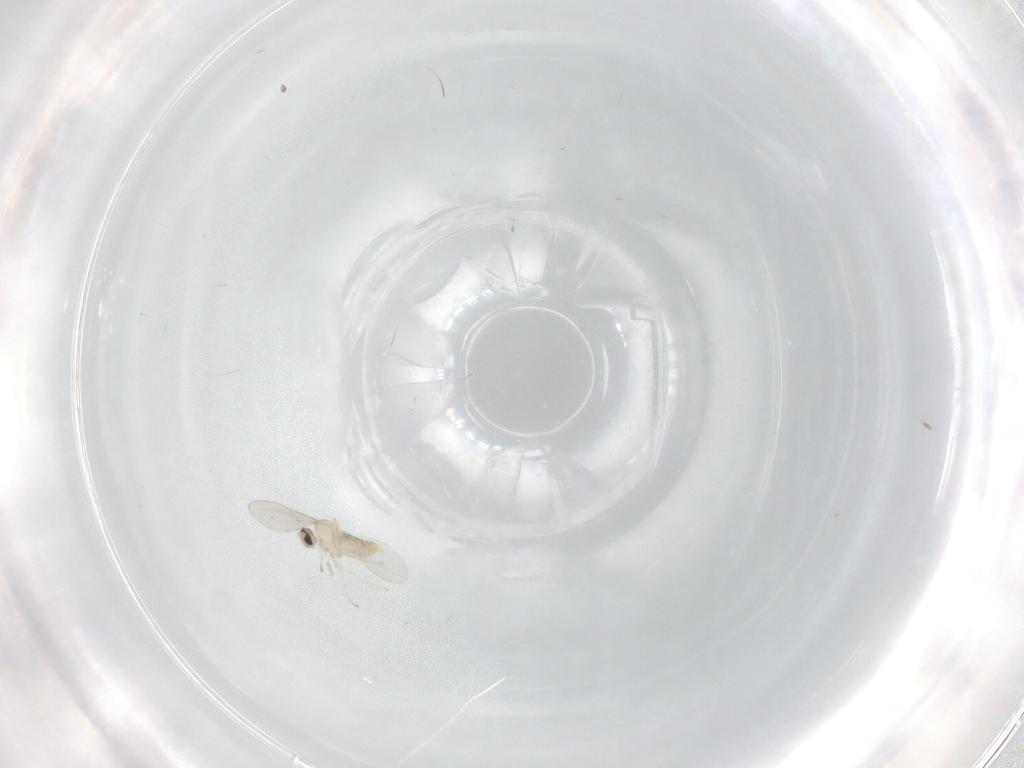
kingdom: Animalia
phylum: Arthropoda
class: Insecta
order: Diptera
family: Cecidomyiidae
